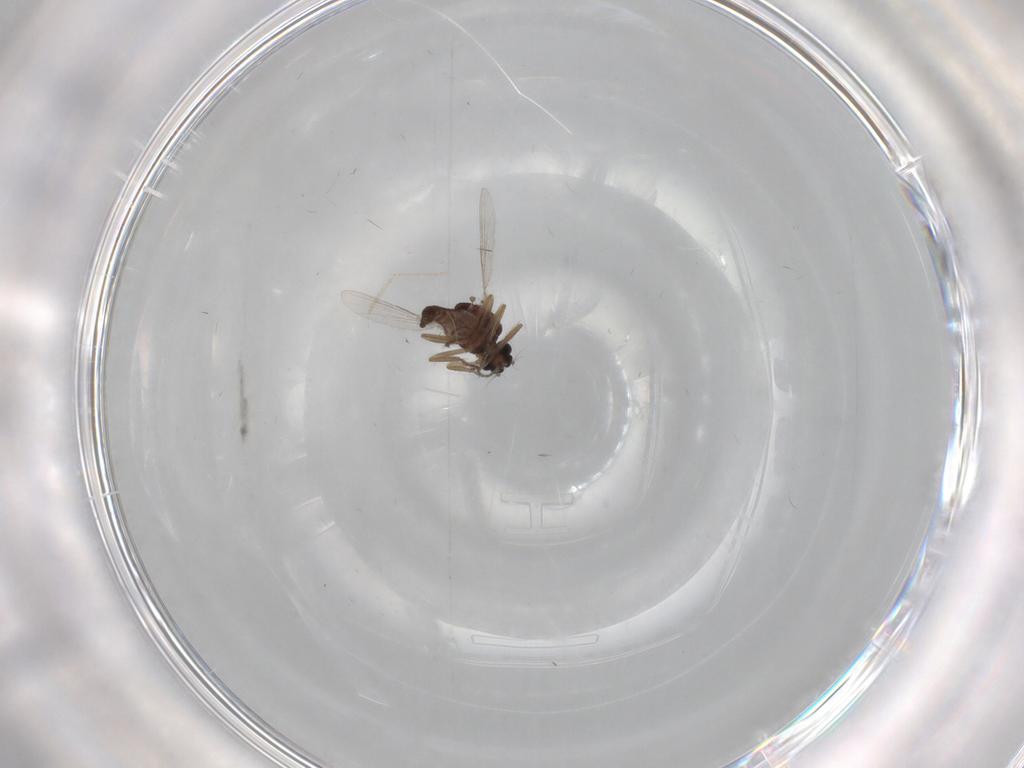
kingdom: Animalia
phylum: Arthropoda
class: Insecta
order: Diptera
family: Ceratopogonidae
